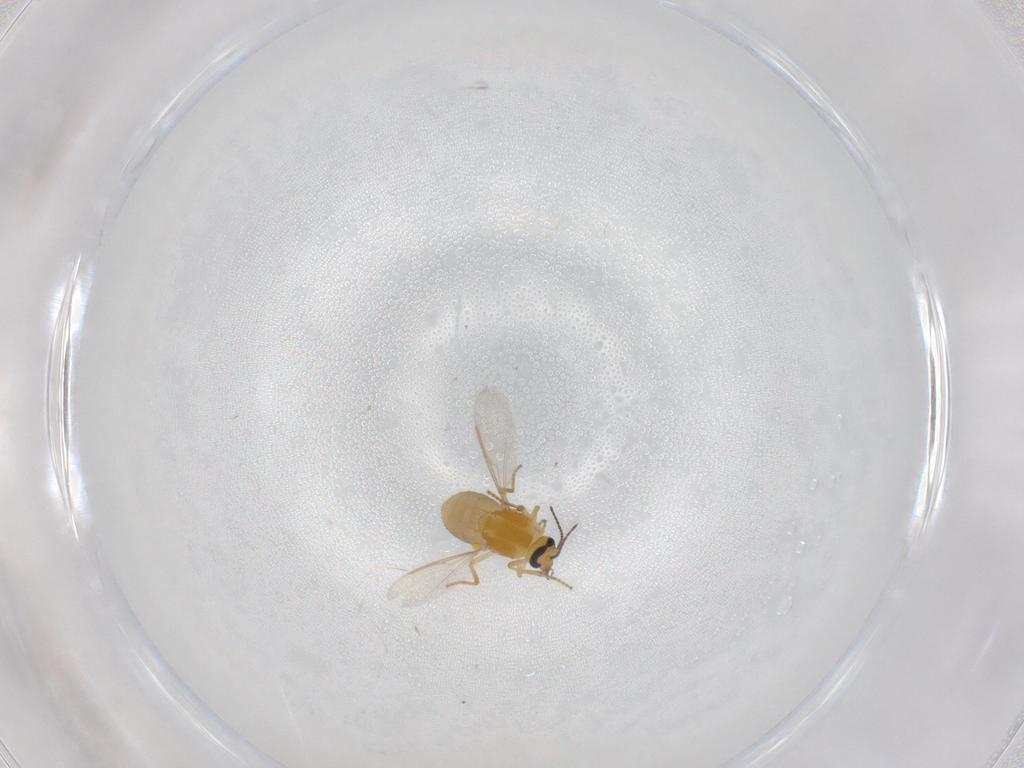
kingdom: Animalia
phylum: Arthropoda
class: Insecta
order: Diptera
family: Ceratopogonidae
